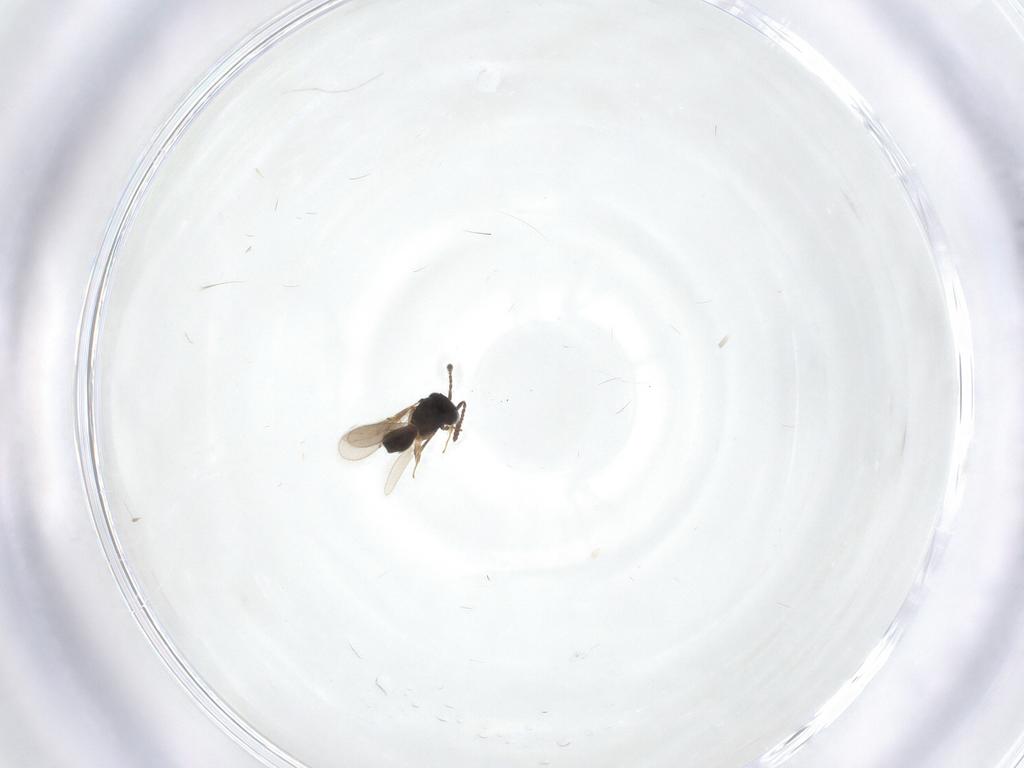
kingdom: Animalia
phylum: Arthropoda
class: Insecta
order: Hymenoptera
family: Scelionidae
